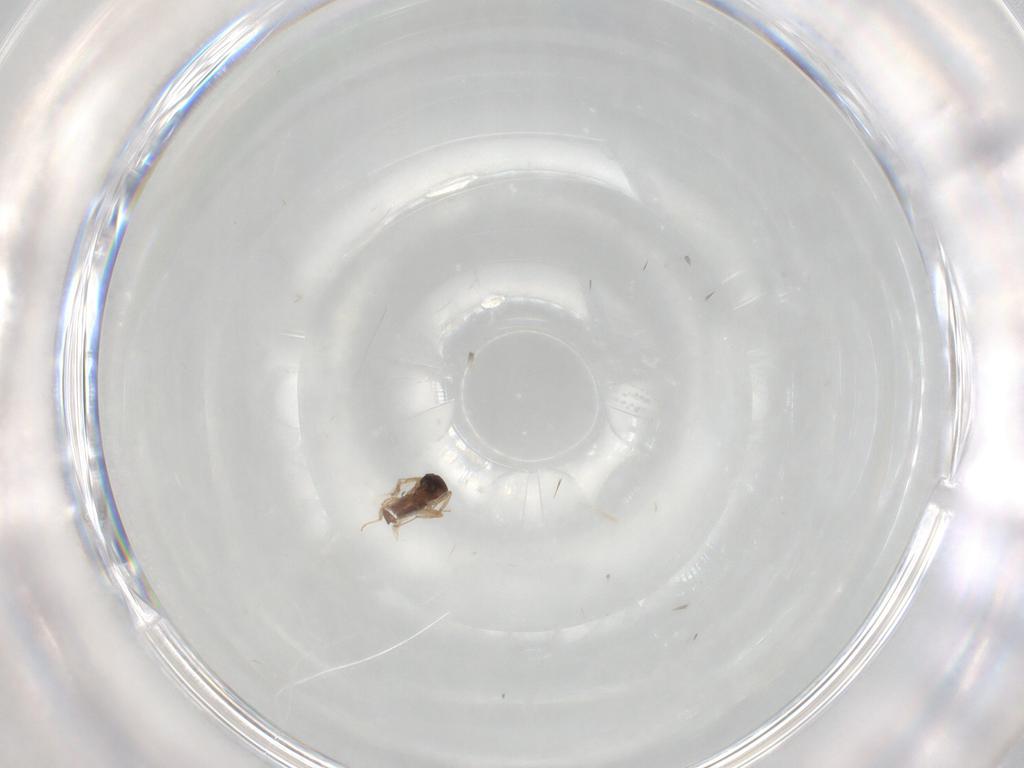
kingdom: Animalia
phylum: Arthropoda
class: Insecta
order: Diptera
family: Ceratopogonidae
